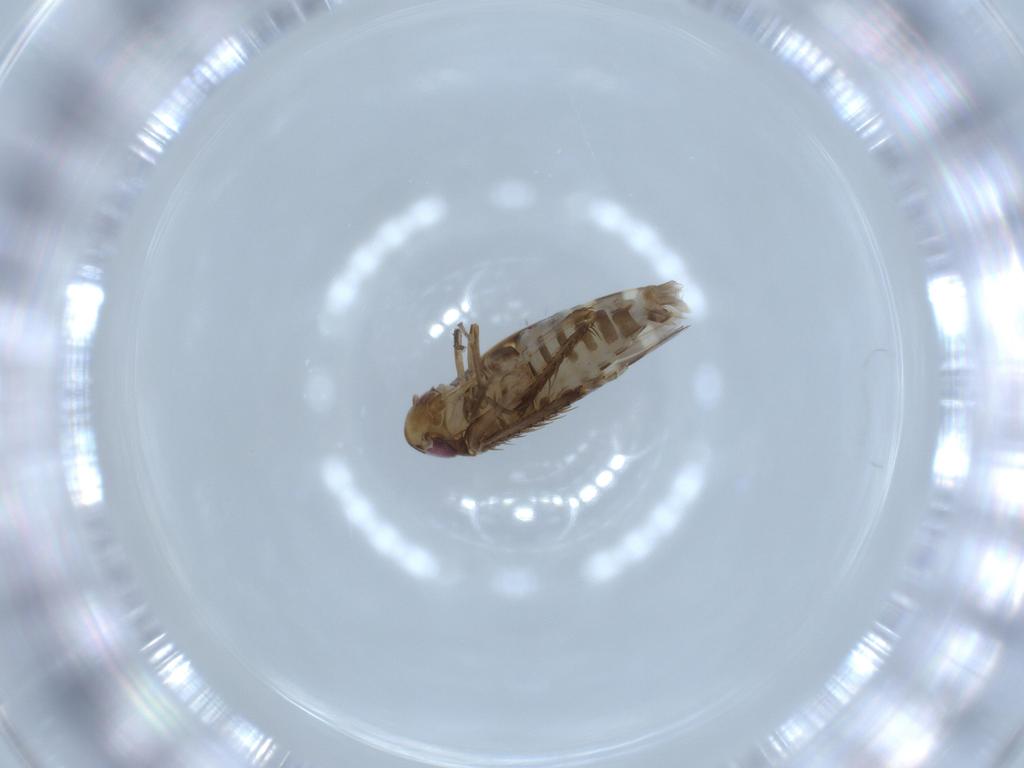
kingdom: Animalia
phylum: Arthropoda
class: Insecta
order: Hemiptera
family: Cicadellidae
